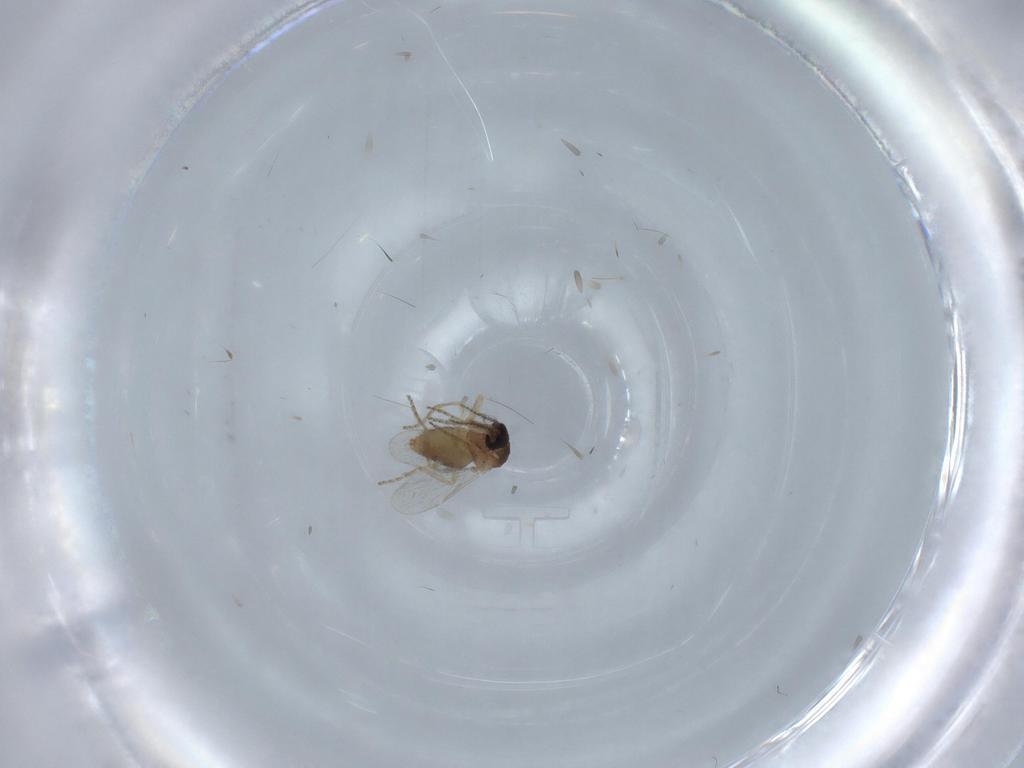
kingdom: Animalia
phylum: Arthropoda
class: Insecta
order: Diptera
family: Ceratopogonidae
